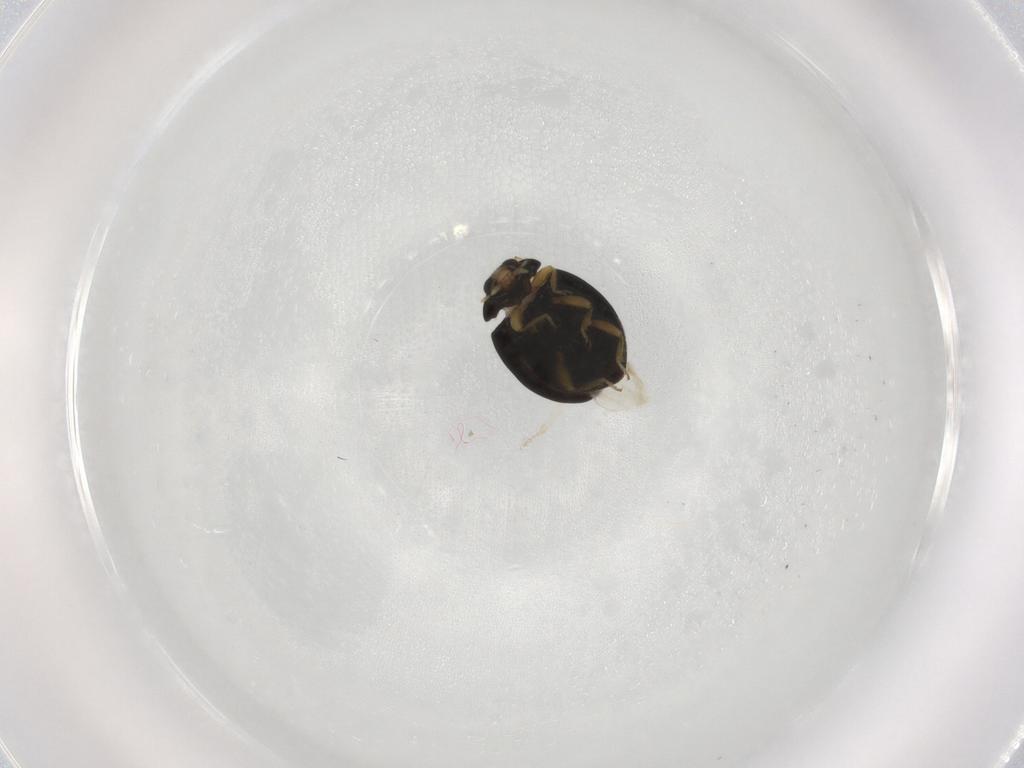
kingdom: Animalia
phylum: Arthropoda
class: Insecta
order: Coleoptera
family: Coccinellidae
